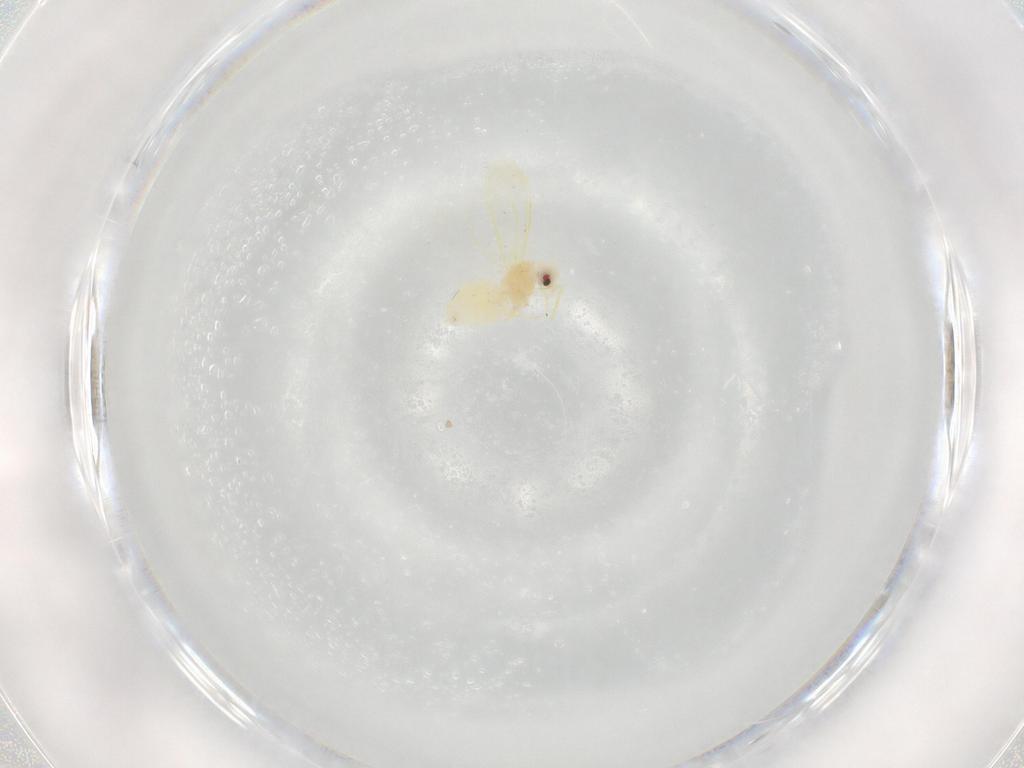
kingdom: Animalia
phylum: Arthropoda
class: Insecta
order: Hemiptera
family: Aleyrodidae
